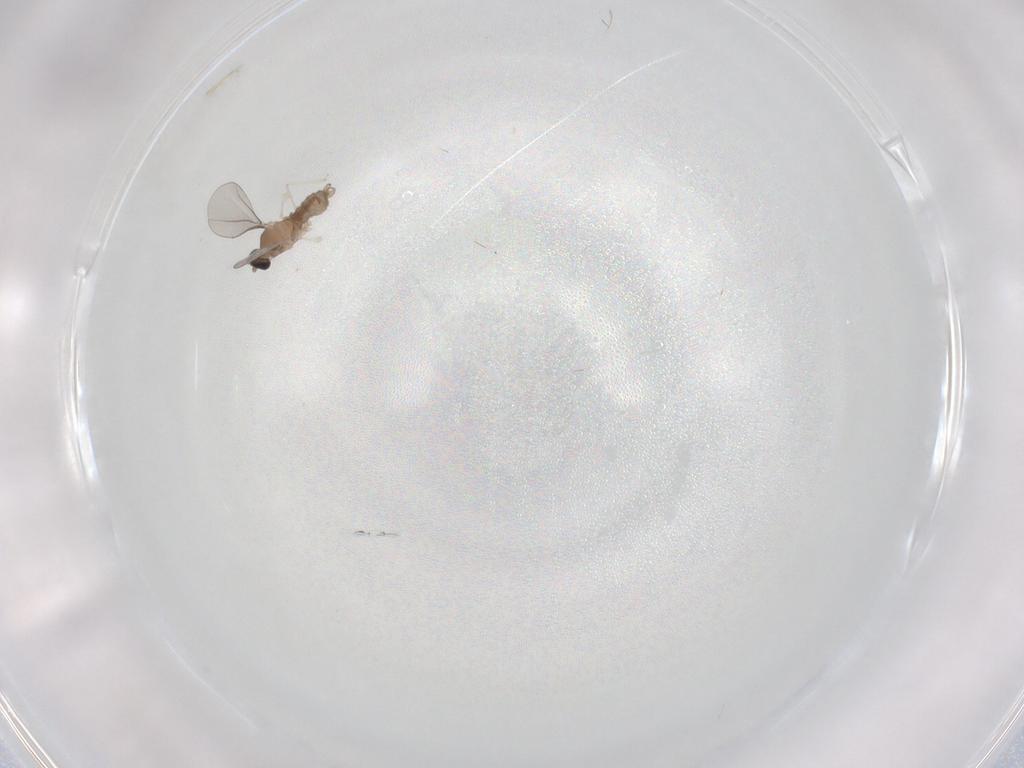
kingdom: Animalia
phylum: Arthropoda
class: Insecta
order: Diptera
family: Cecidomyiidae
